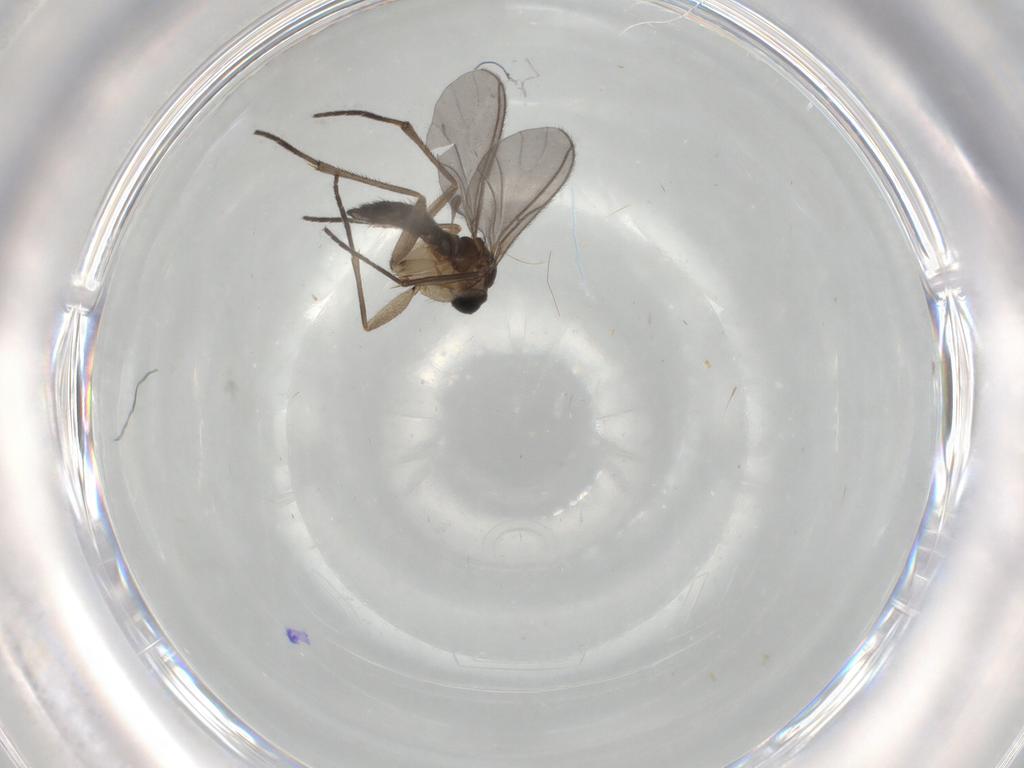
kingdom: Animalia
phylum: Arthropoda
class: Insecta
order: Diptera
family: Sciaridae
